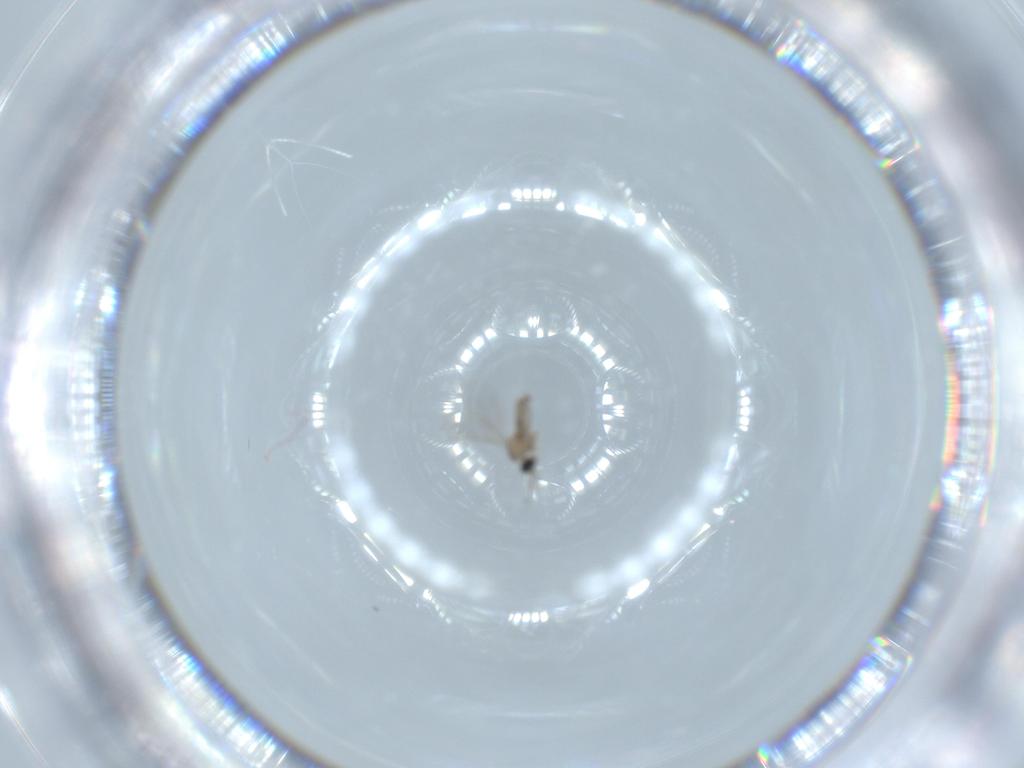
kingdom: Animalia
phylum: Arthropoda
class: Insecta
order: Diptera
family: Cecidomyiidae
